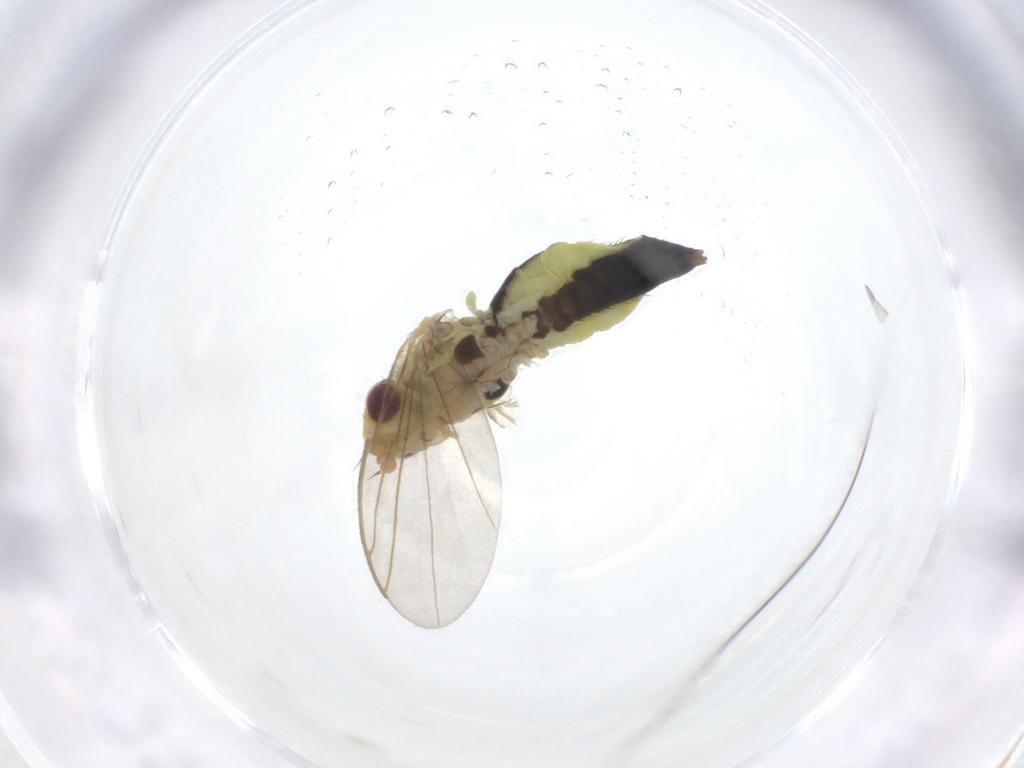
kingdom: Animalia
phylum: Arthropoda
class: Insecta
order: Diptera
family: Agromyzidae
